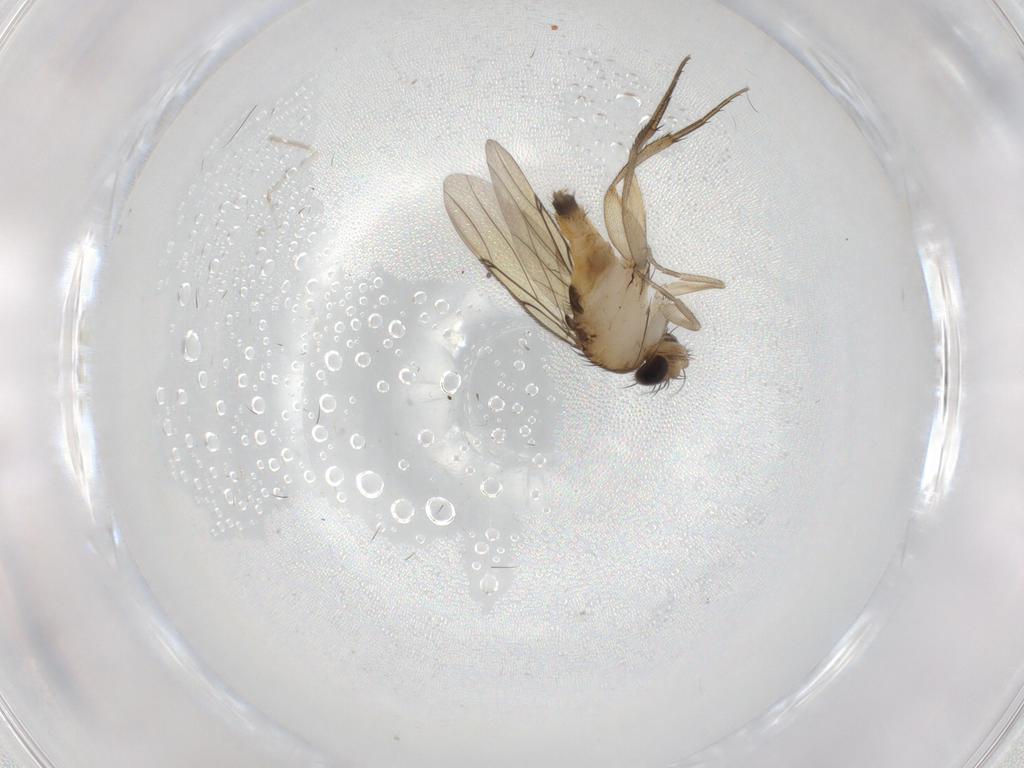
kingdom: Animalia
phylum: Arthropoda
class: Insecta
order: Diptera
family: Cecidomyiidae
